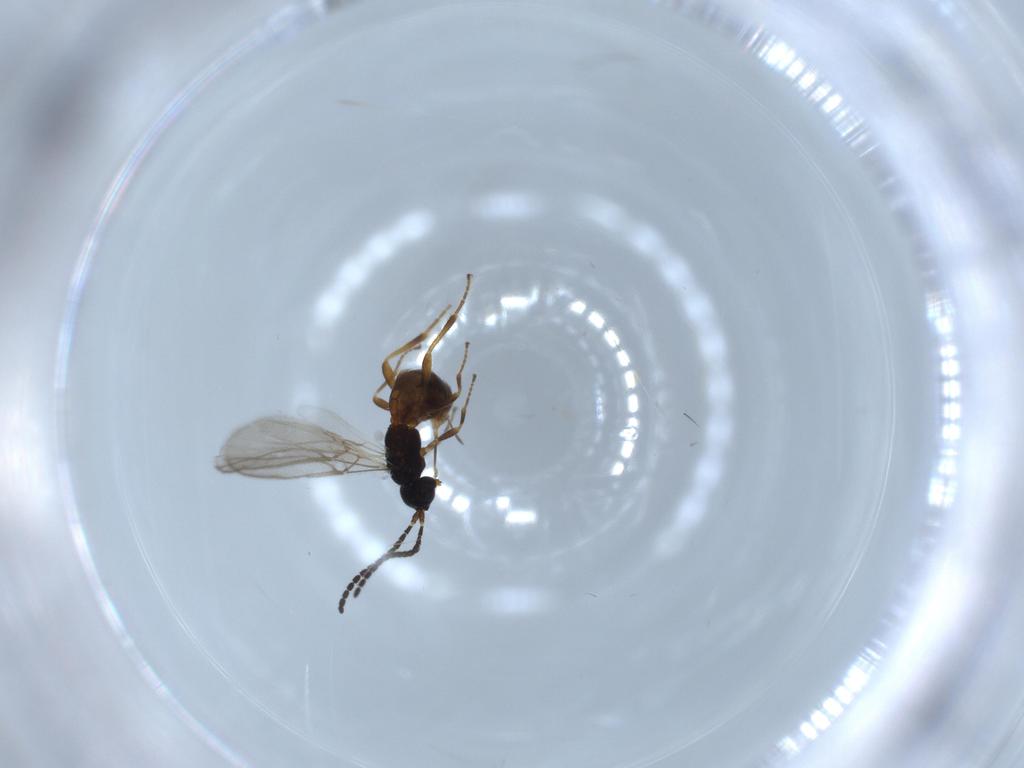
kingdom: Animalia
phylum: Arthropoda
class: Insecta
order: Hymenoptera
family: Braconidae
